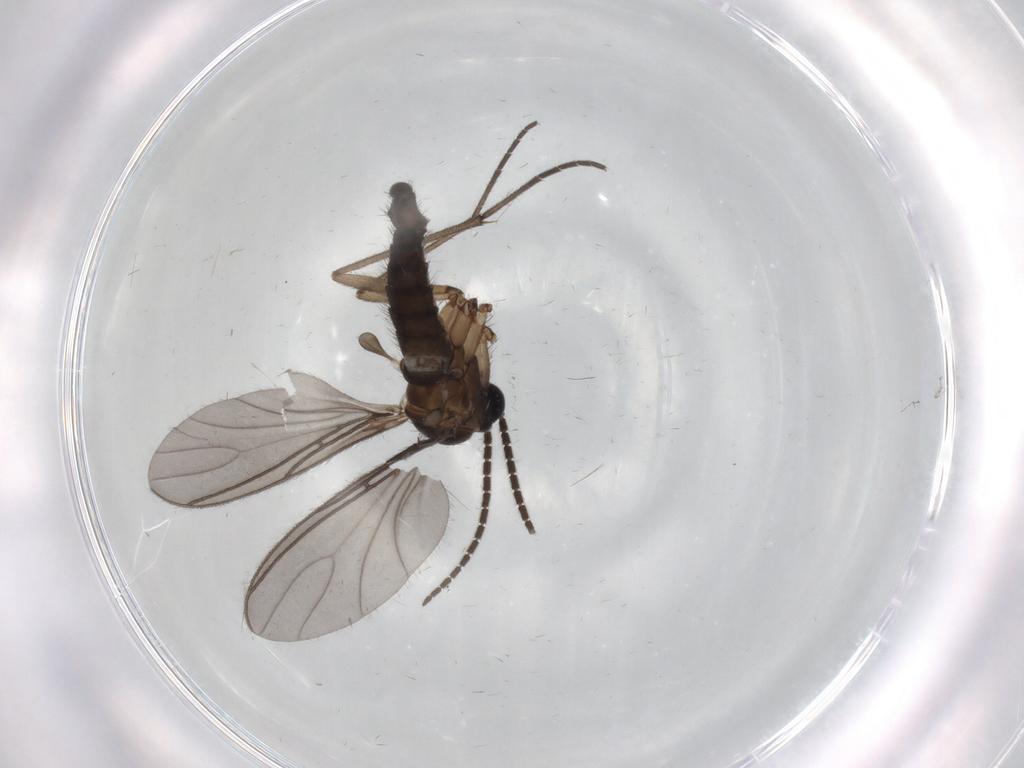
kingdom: Animalia
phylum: Arthropoda
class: Insecta
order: Diptera
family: Sciaridae
